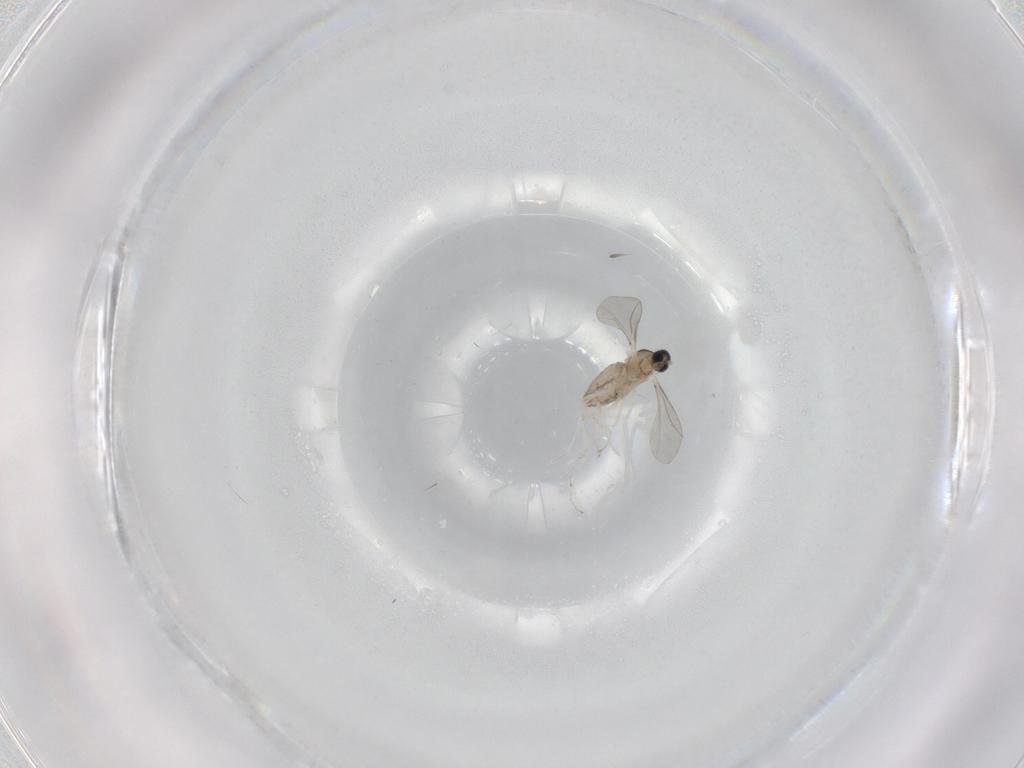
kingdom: Animalia
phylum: Arthropoda
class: Insecta
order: Diptera
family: Cecidomyiidae
